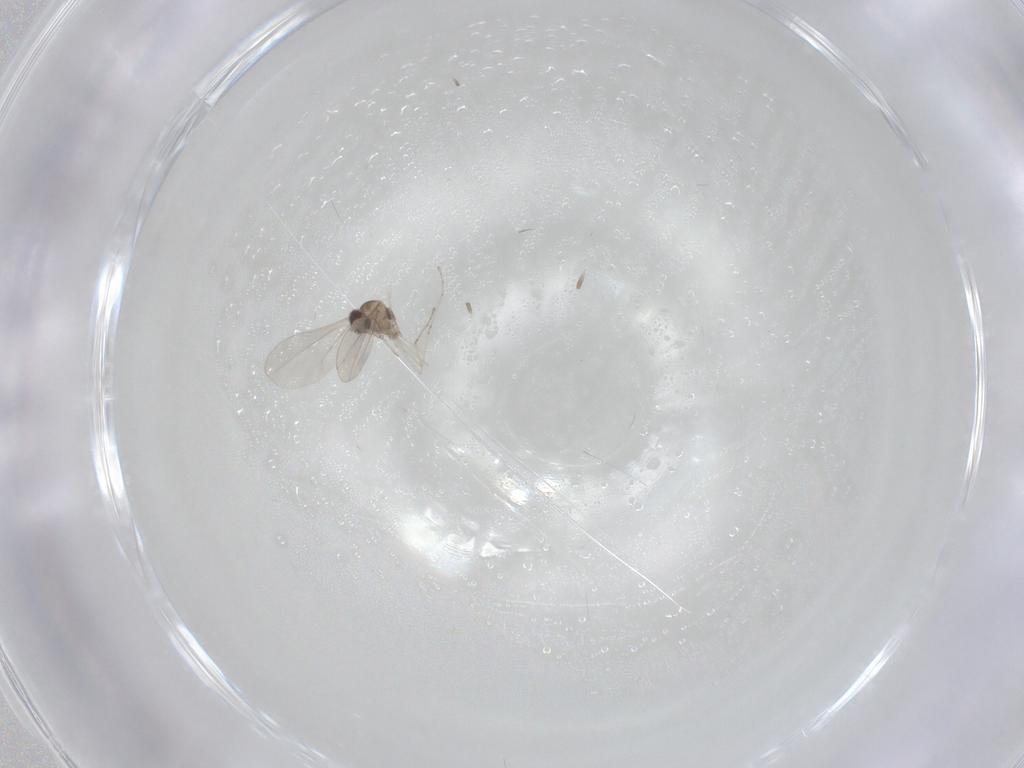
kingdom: Animalia
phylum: Arthropoda
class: Insecta
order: Diptera
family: Cecidomyiidae
